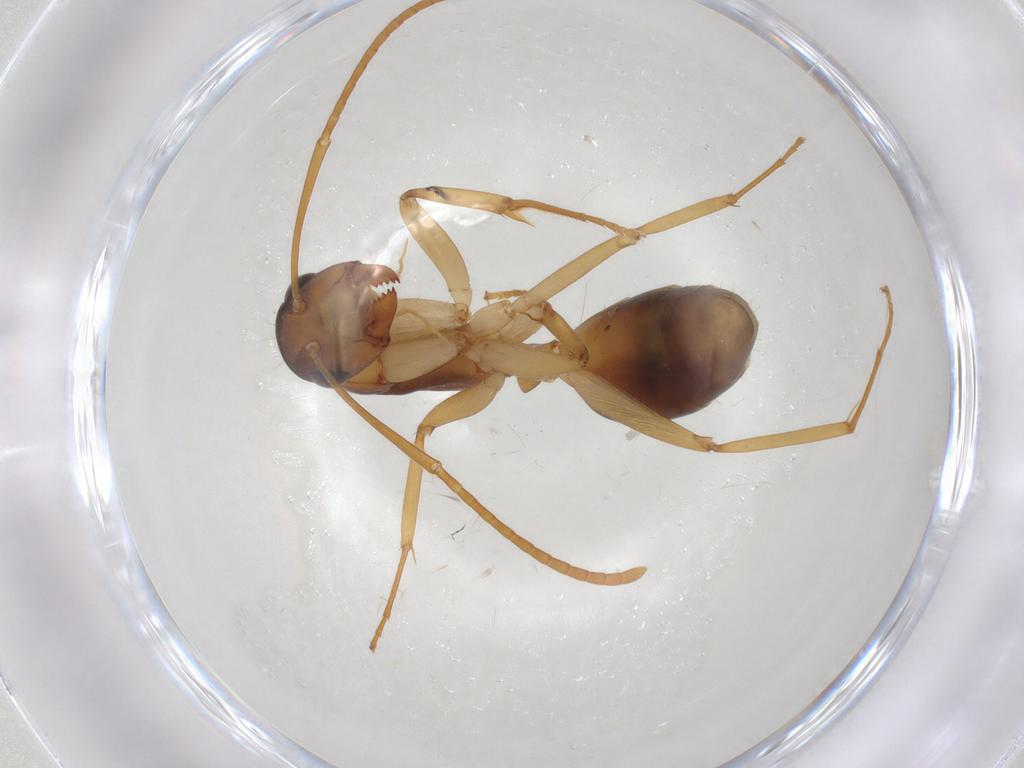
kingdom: Animalia
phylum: Arthropoda
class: Insecta
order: Hymenoptera
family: Formicidae
